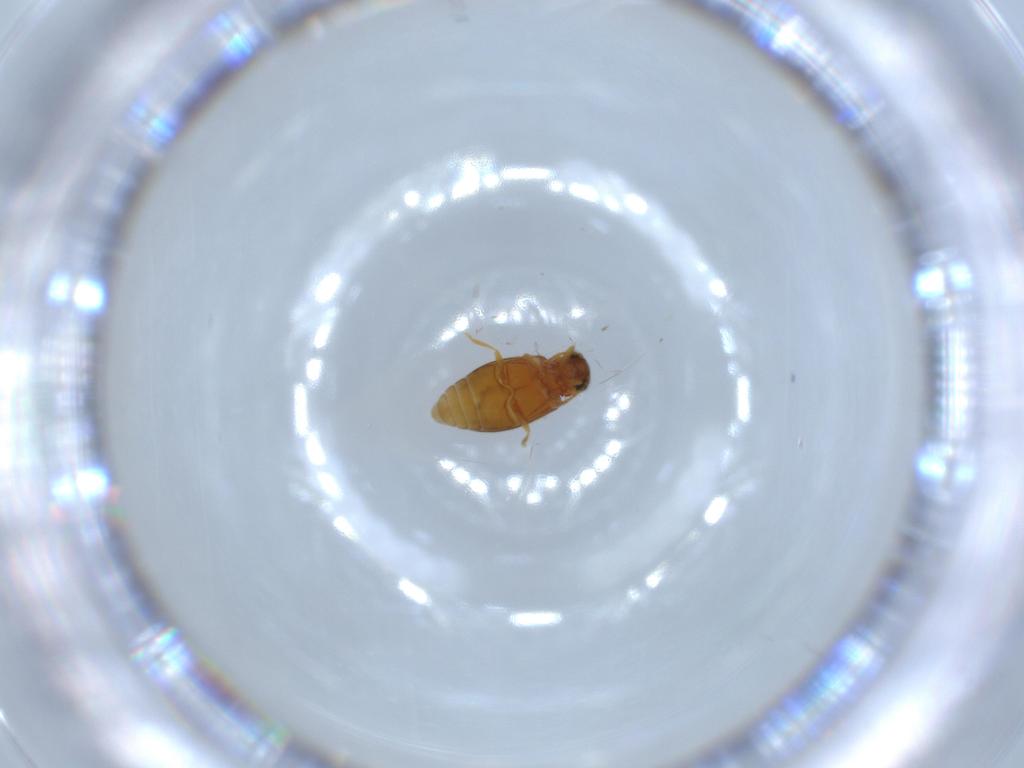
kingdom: Animalia
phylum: Arthropoda
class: Insecta
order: Coleoptera
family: Aderidae
